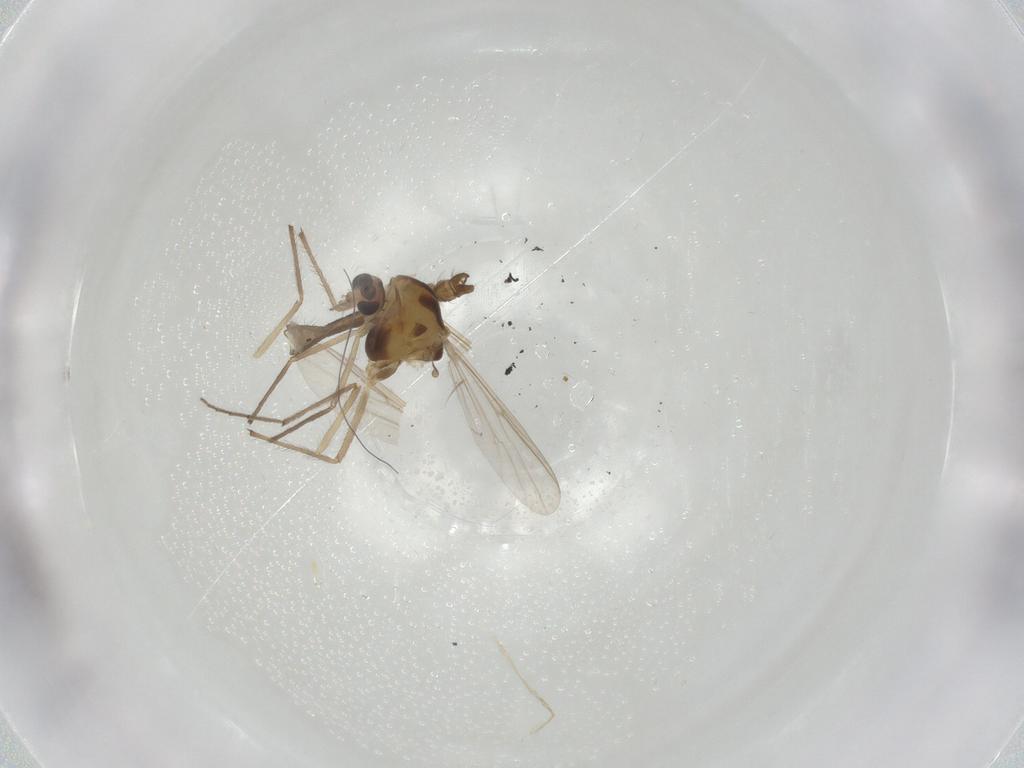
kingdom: Animalia
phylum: Arthropoda
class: Insecta
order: Diptera
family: Chironomidae
